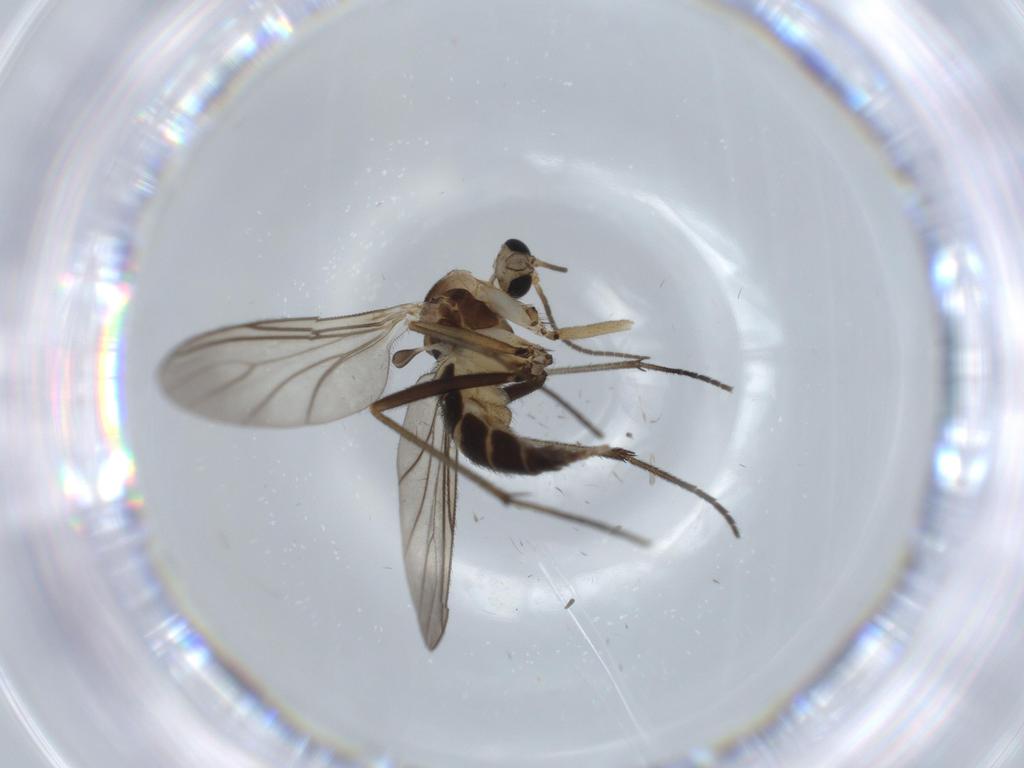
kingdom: Animalia
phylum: Arthropoda
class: Insecta
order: Diptera
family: Sciaridae
